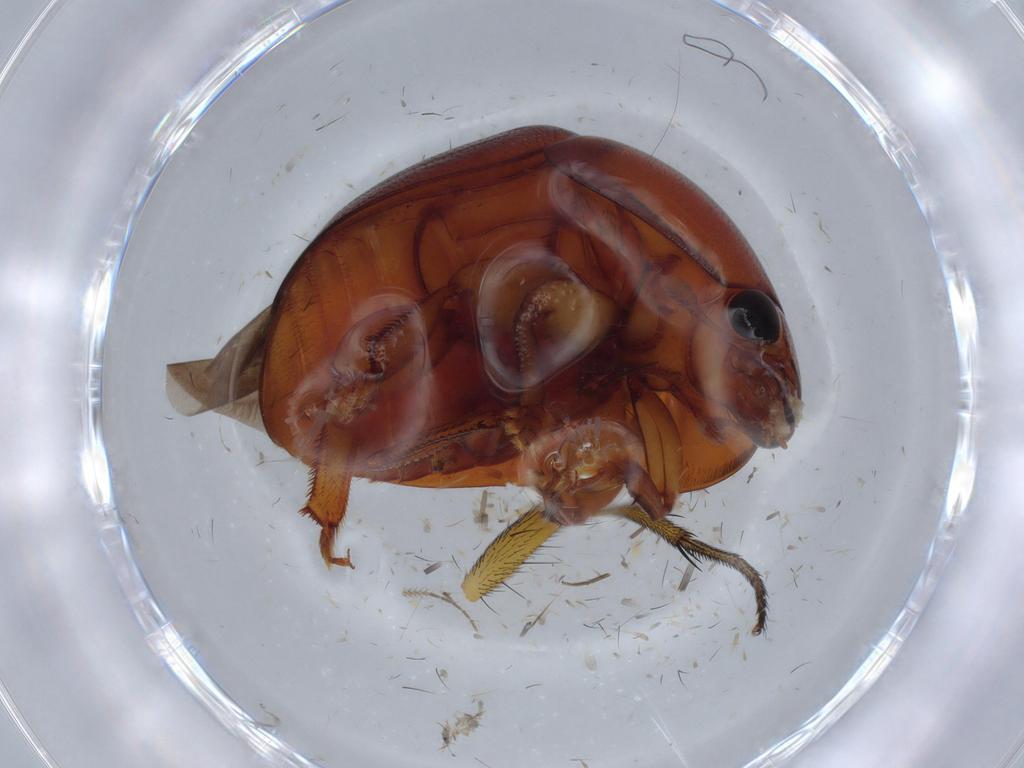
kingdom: Animalia
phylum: Arthropoda
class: Insecta
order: Coleoptera
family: Nitidulidae
